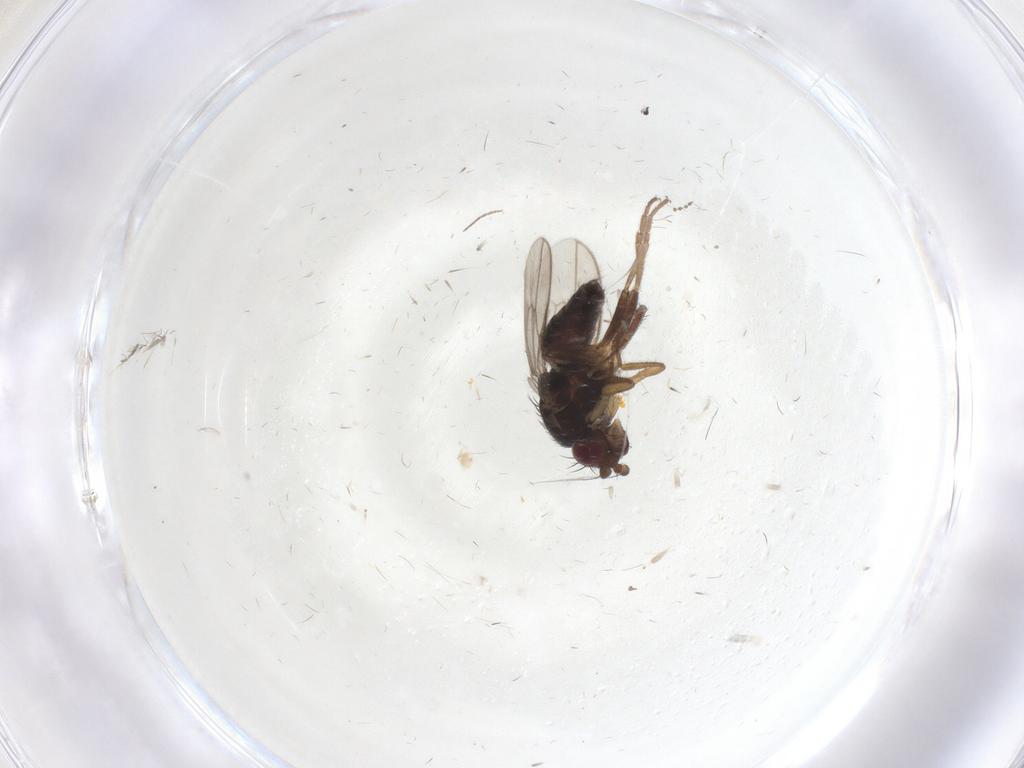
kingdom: Animalia
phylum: Arthropoda
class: Insecta
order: Diptera
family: Sphaeroceridae
